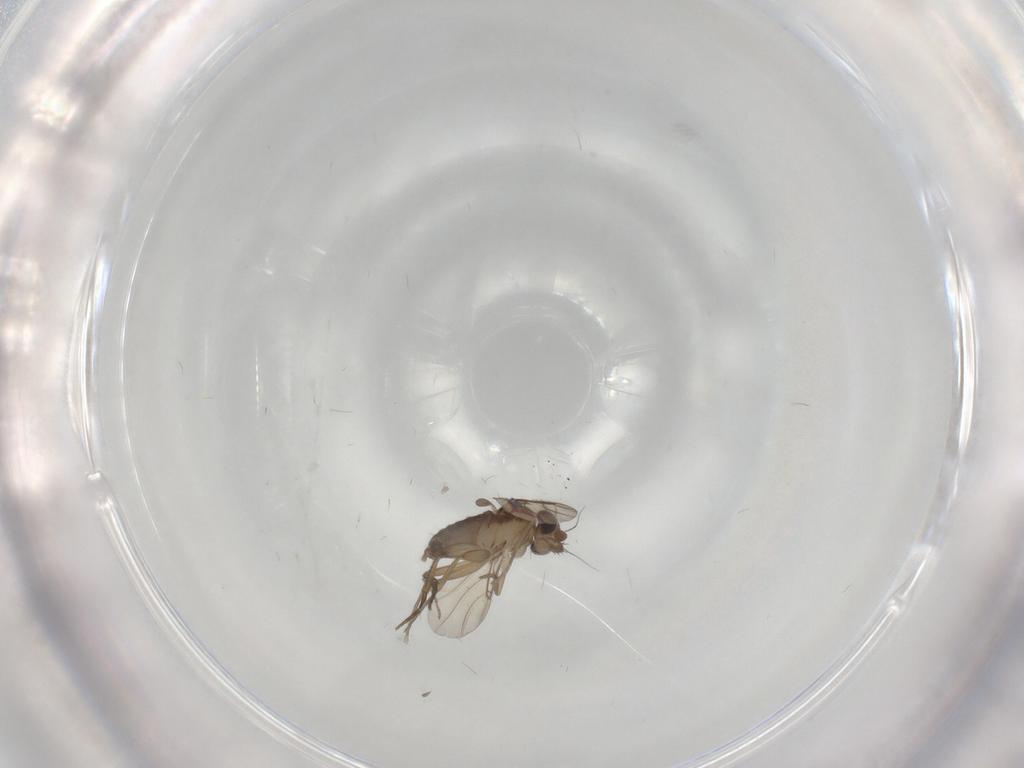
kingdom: Animalia
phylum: Arthropoda
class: Insecta
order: Diptera
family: Phoridae
